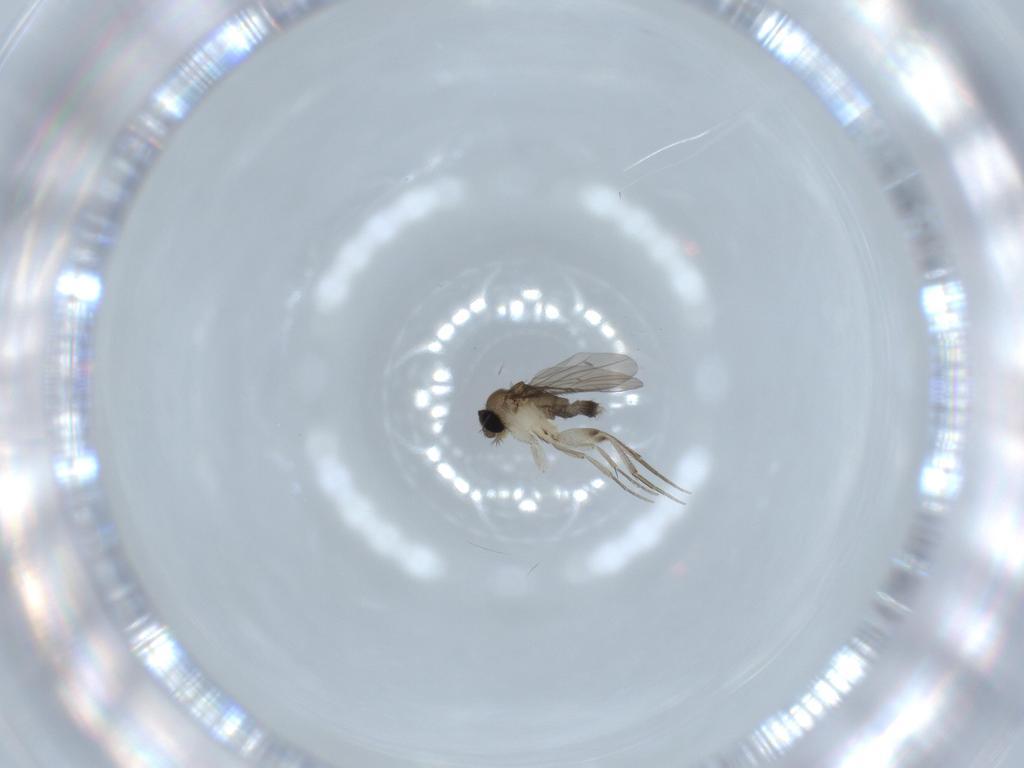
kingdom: Animalia
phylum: Arthropoda
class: Insecta
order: Diptera
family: Phoridae
